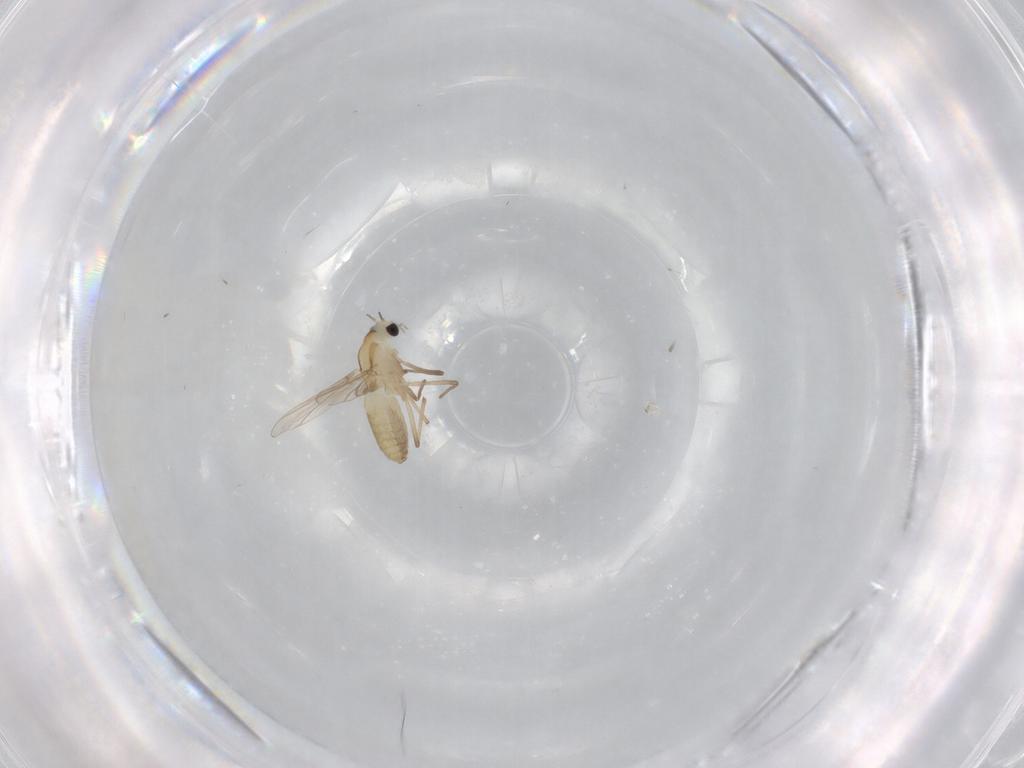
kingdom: Animalia
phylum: Arthropoda
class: Insecta
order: Diptera
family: Chironomidae
